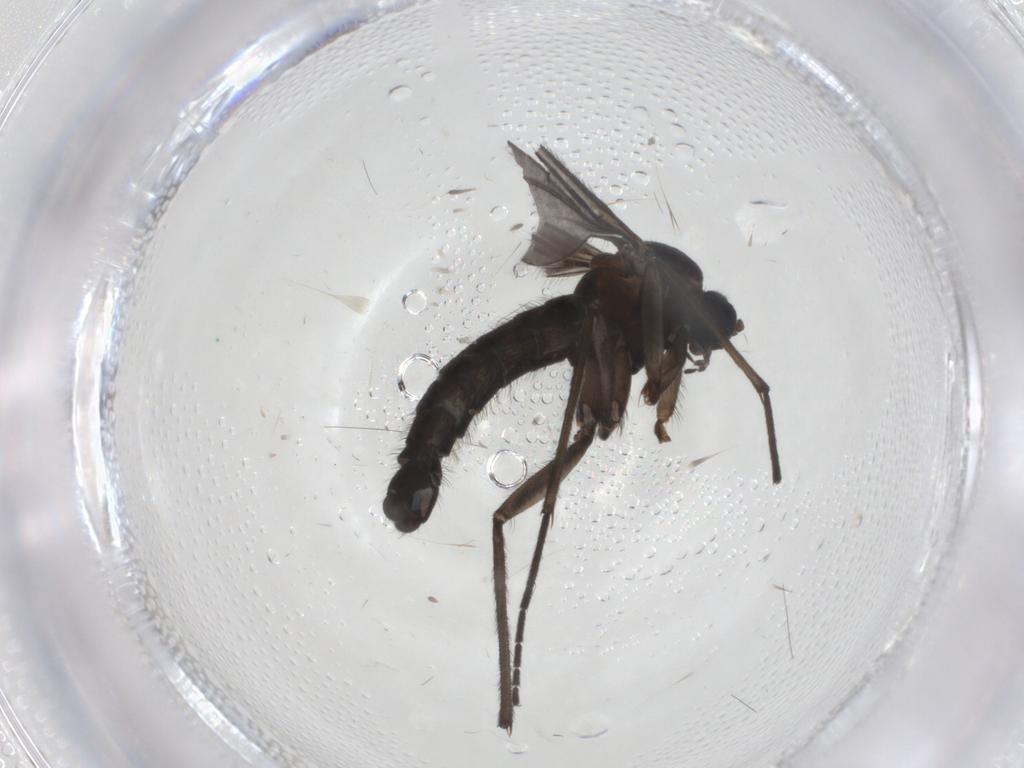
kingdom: Animalia
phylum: Arthropoda
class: Insecta
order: Diptera
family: Sciaridae
